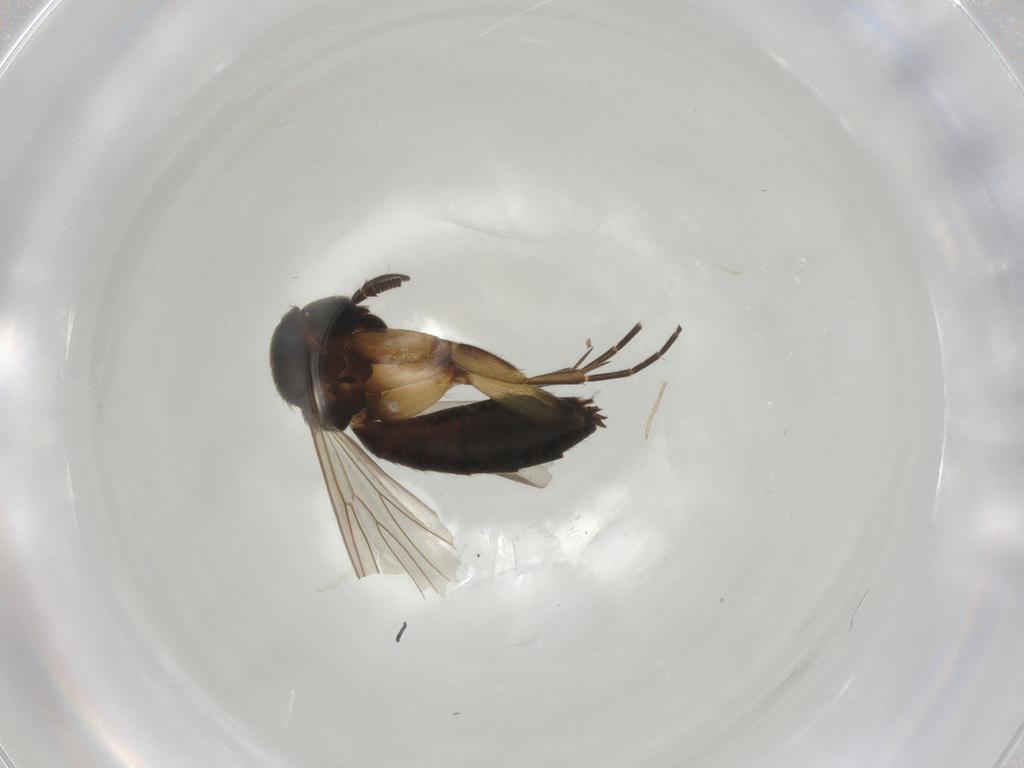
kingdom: Animalia
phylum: Arthropoda
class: Insecta
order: Diptera
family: Mycetophilidae
